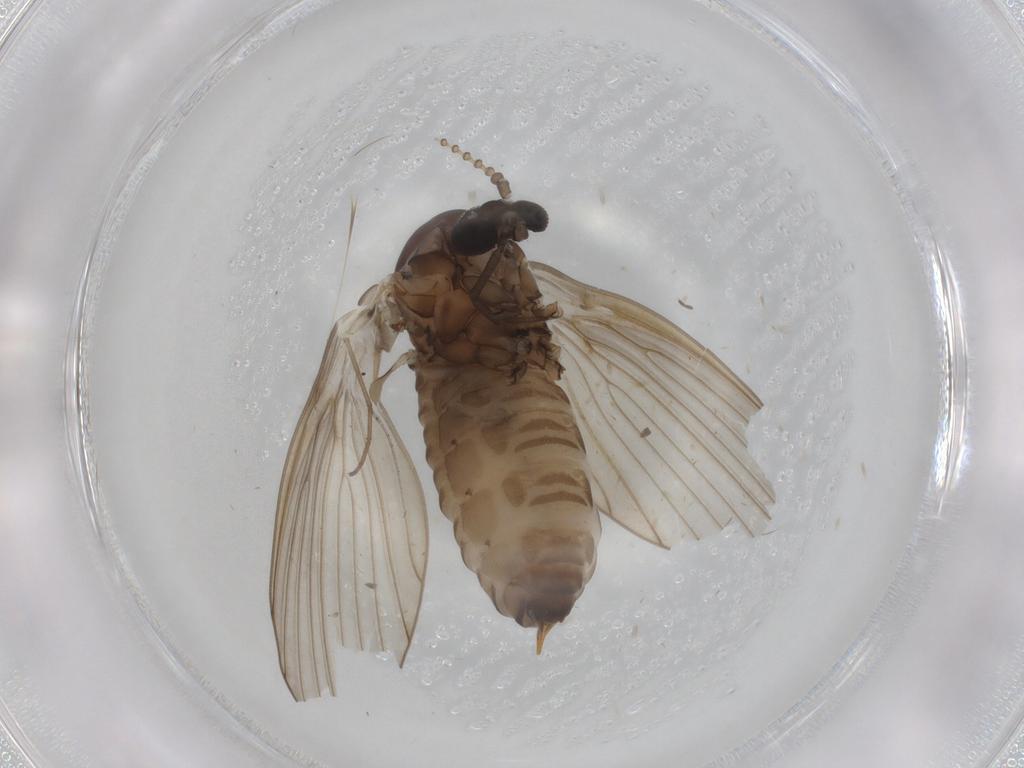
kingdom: Animalia
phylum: Arthropoda
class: Insecta
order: Diptera
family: Psychodidae
